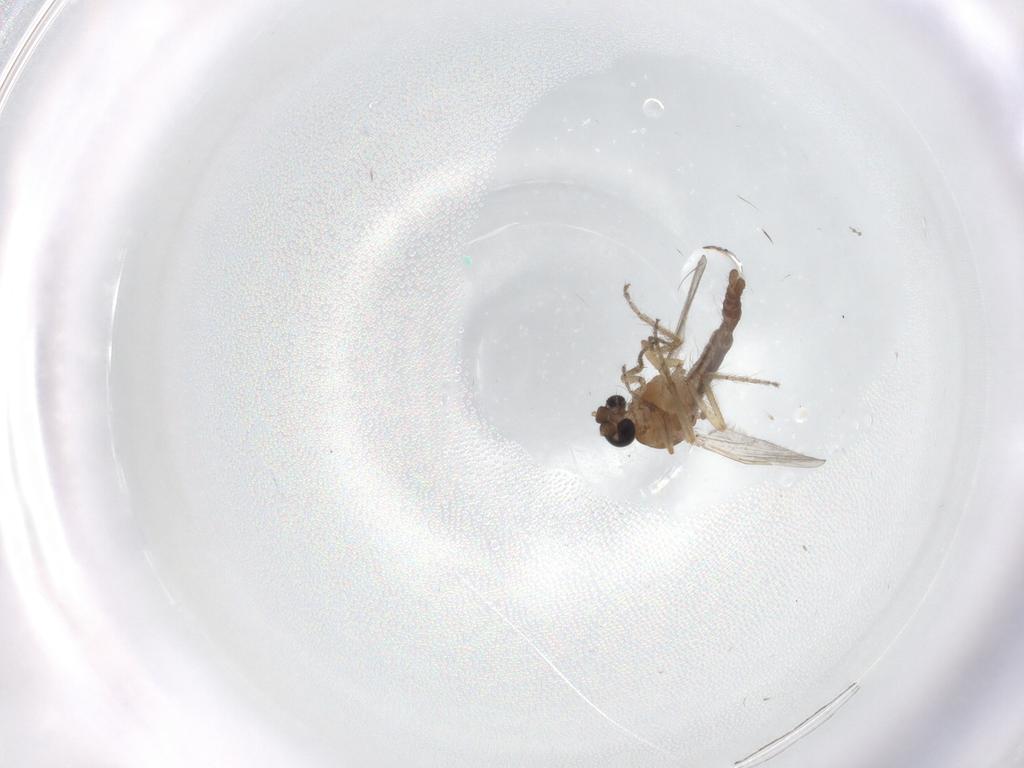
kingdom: Animalia
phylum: Arthropoda
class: Insecta
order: Diptera
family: Ceratopogonidae
